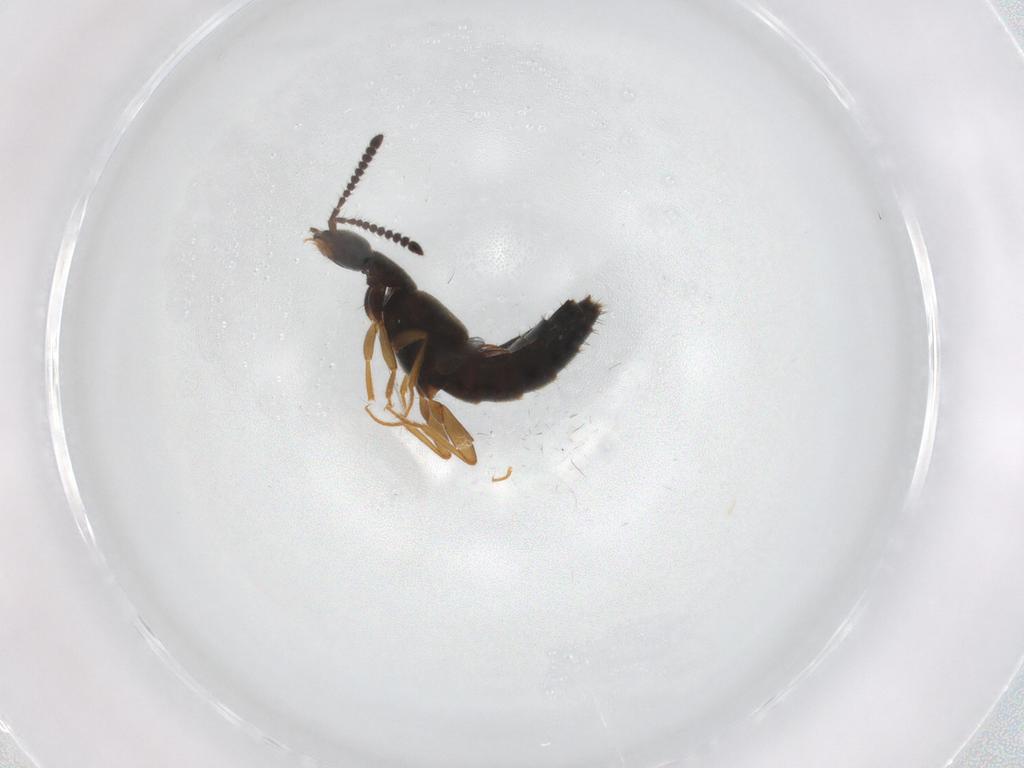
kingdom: Animalia
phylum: Arthropoda
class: Insecta
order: Coleoptera
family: Staphylinidae
